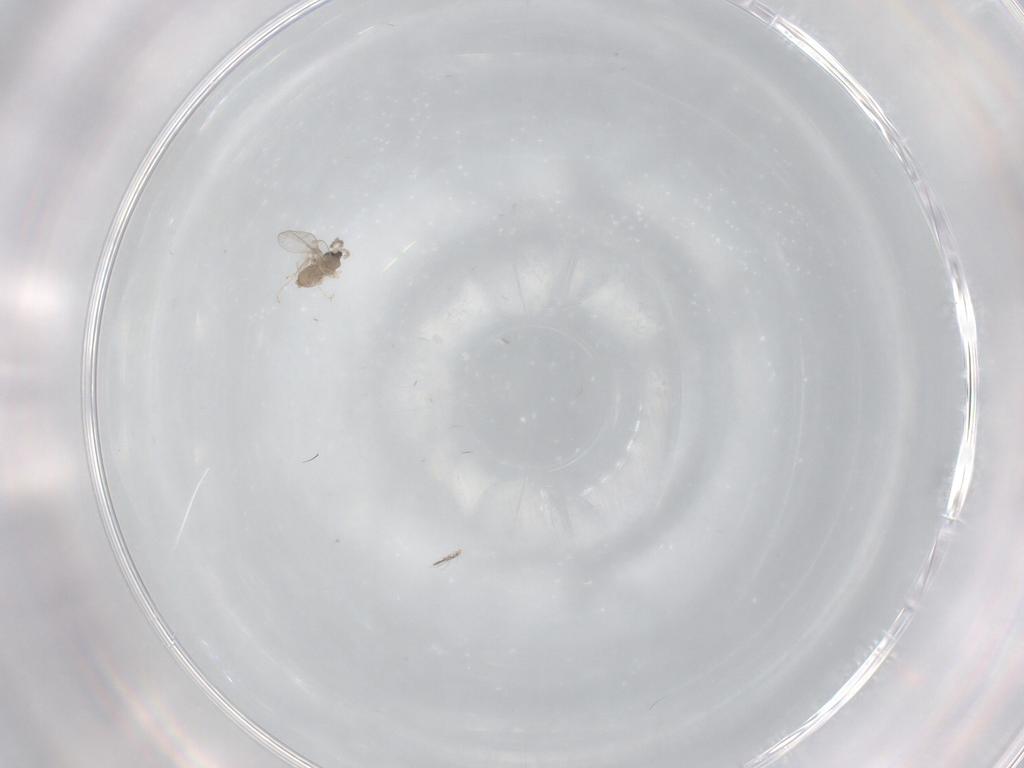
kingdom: Animalia
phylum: Arthropoda
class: Insecta
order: Diptera
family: Chironomidae
